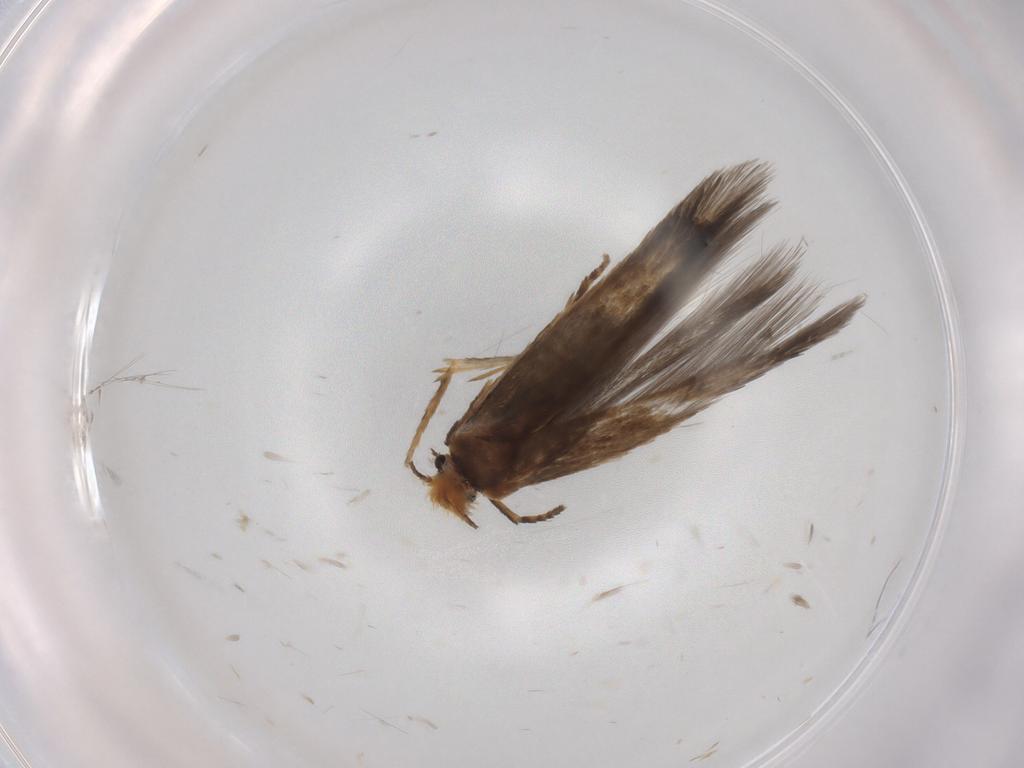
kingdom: Animalia
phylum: Arthropoda
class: Insecta
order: Lepidoptera
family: Nepticulidae
